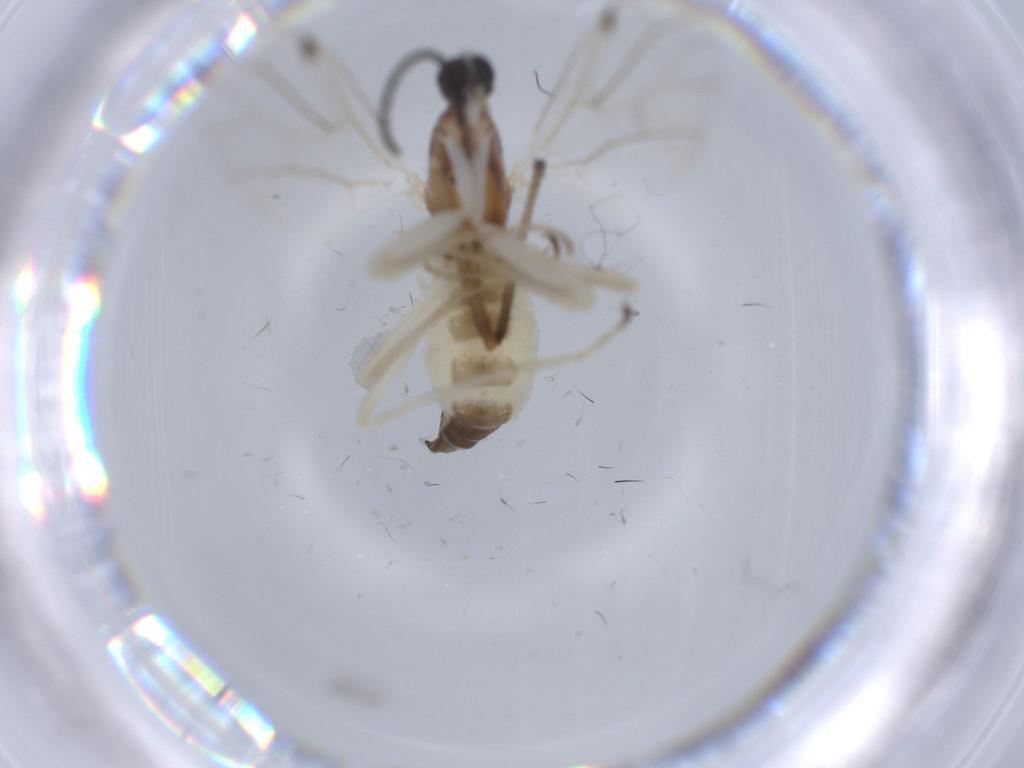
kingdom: Animalia
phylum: Arthropoda
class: Insecta
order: Diptera
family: Chironomidae
